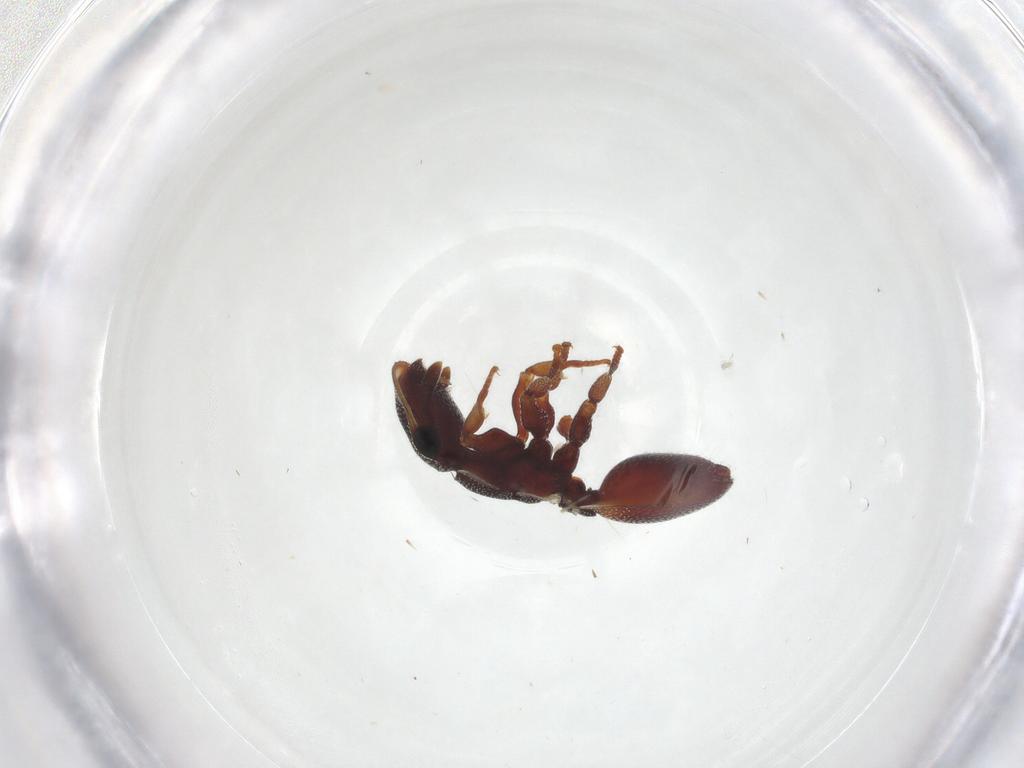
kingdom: Animalia
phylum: Arthropoda
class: Insecta
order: Hymenoptera
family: Formicidae
